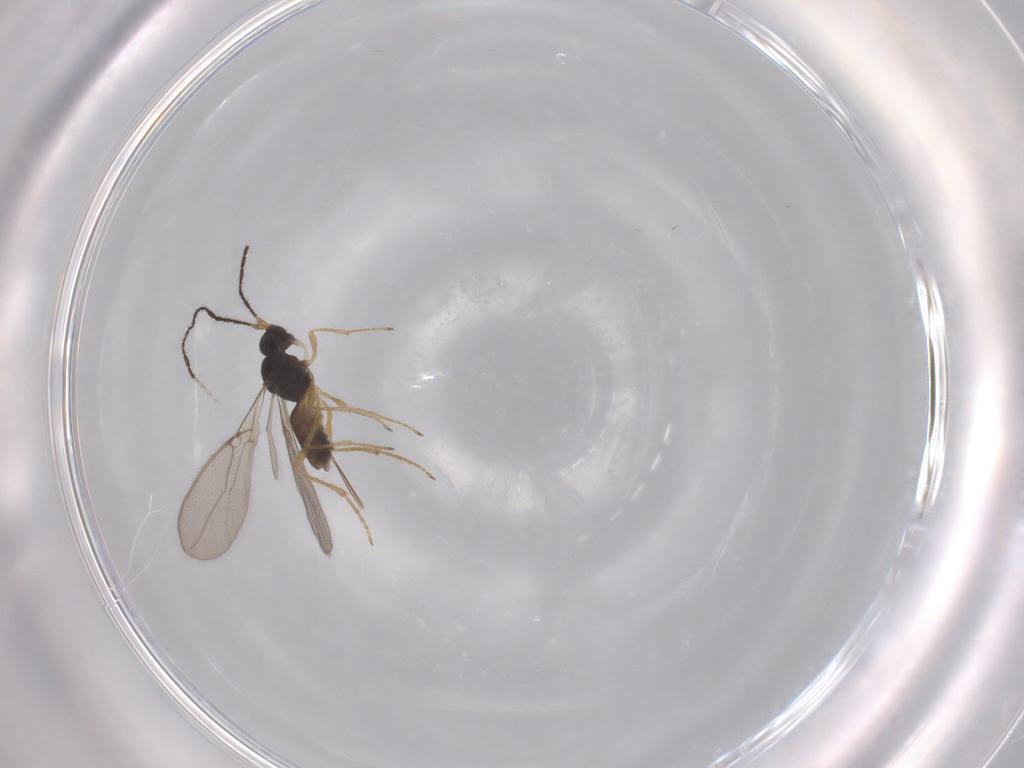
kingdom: Animalia
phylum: Arthropoda
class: Insecta
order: Hymenoptera
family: Braconidae
